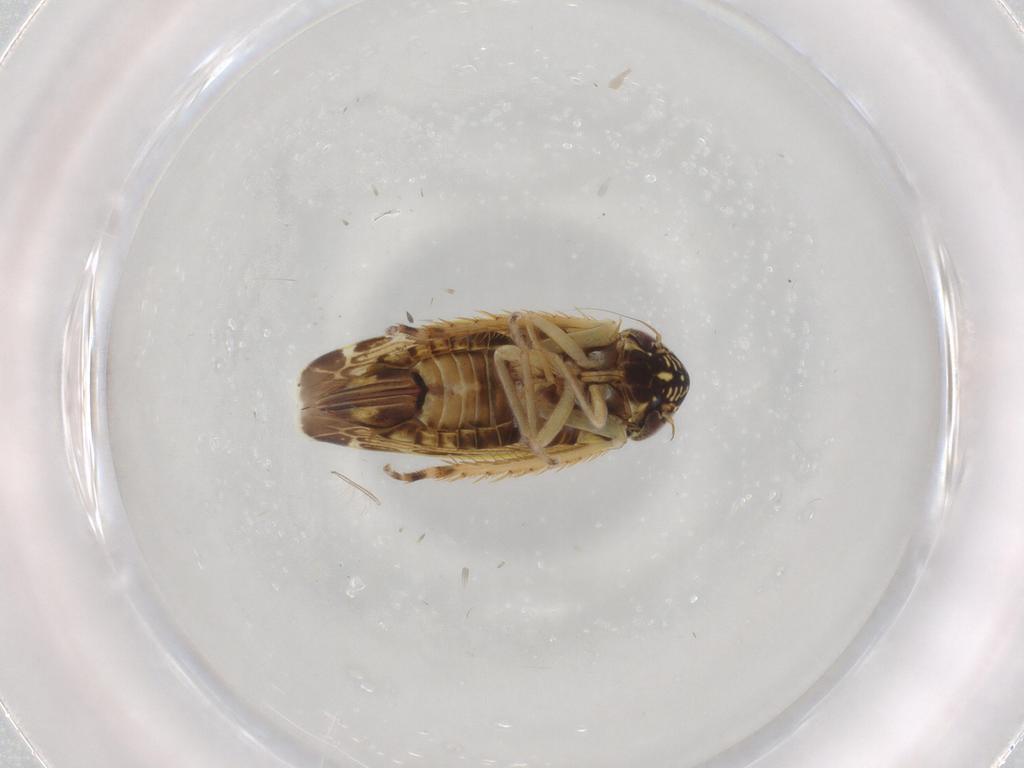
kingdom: Animalia
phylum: Arthropoda
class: Insecta
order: Hemiptera
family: Cicadellidae
